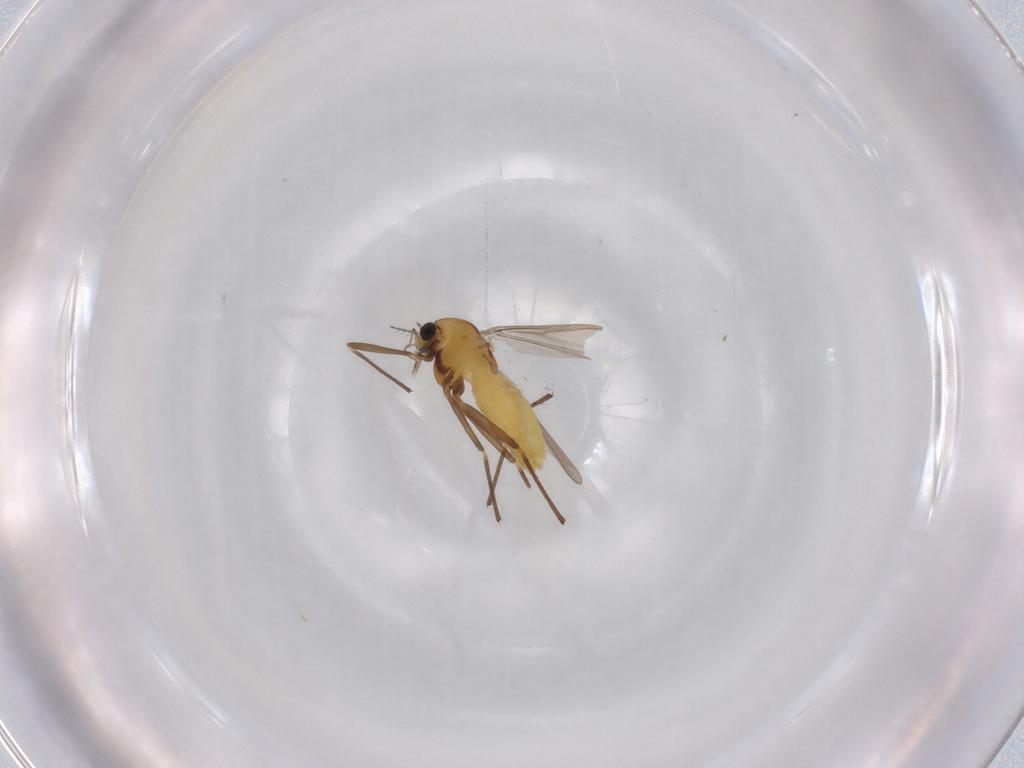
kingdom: Animalia
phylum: Arthropoda
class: Insecta
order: Diptera
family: Chironomidae
